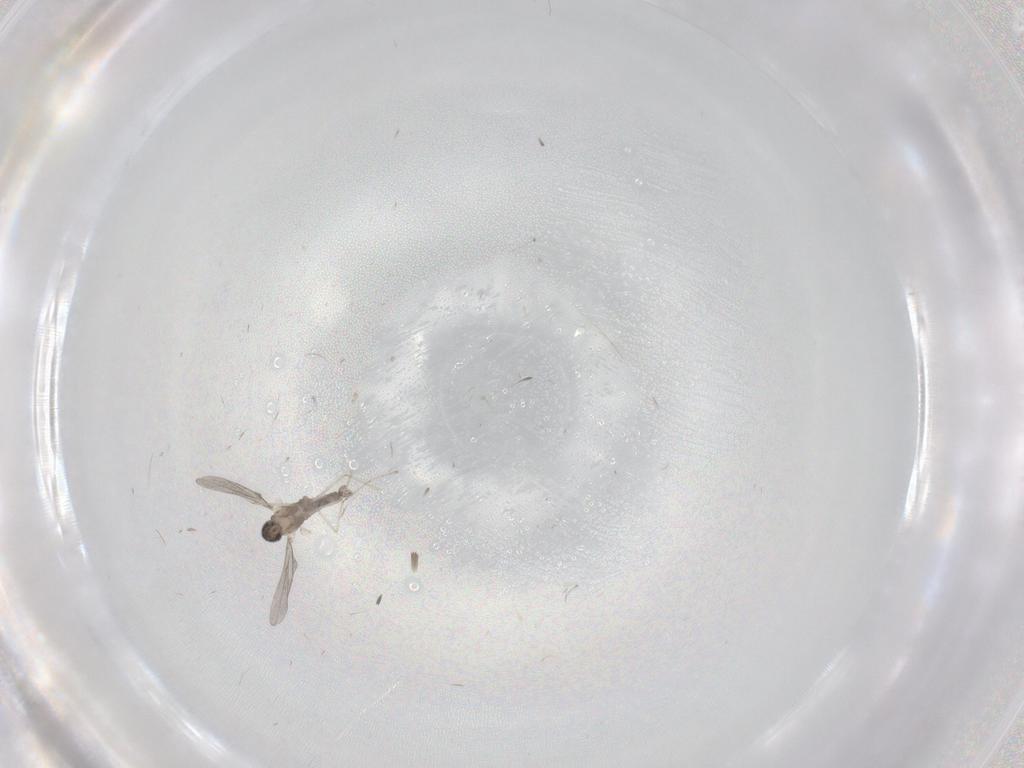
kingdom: Animalia
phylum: Arthropoda
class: Insecta
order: Diptera
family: Cecidomyiidae
